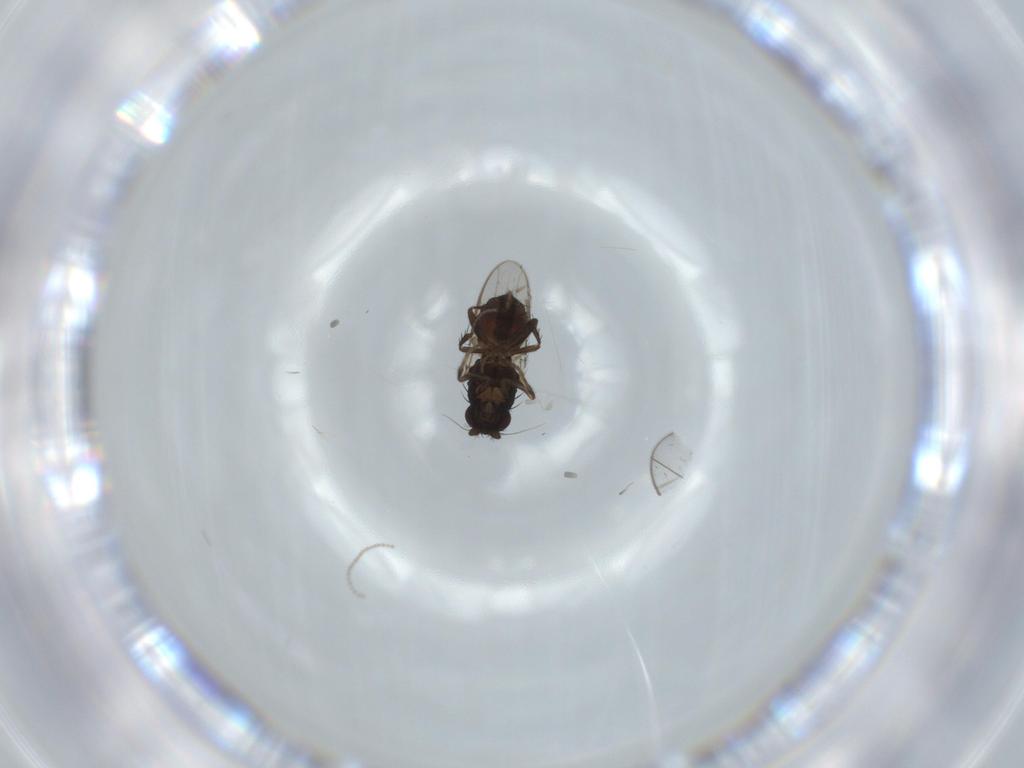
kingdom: Animalia
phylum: Arthropoda
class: Insecta
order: Diptera
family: Sphaeroceridae
